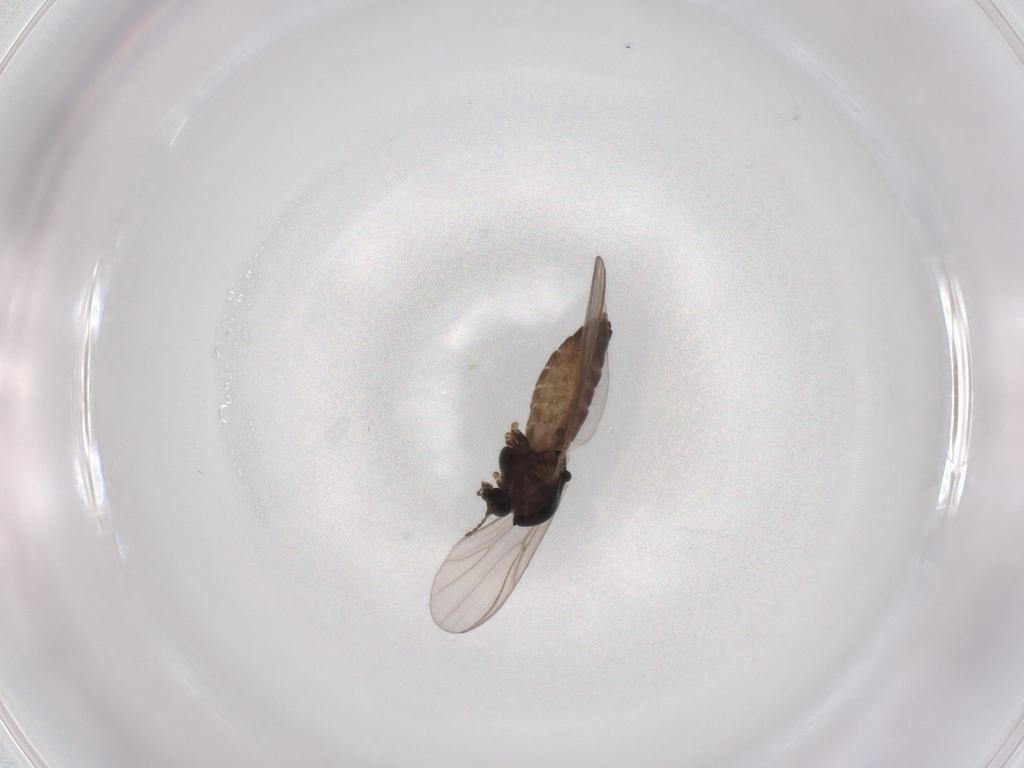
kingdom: Animalia
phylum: Arthropoda
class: Insecta
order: Diptera
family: Chironomidae
